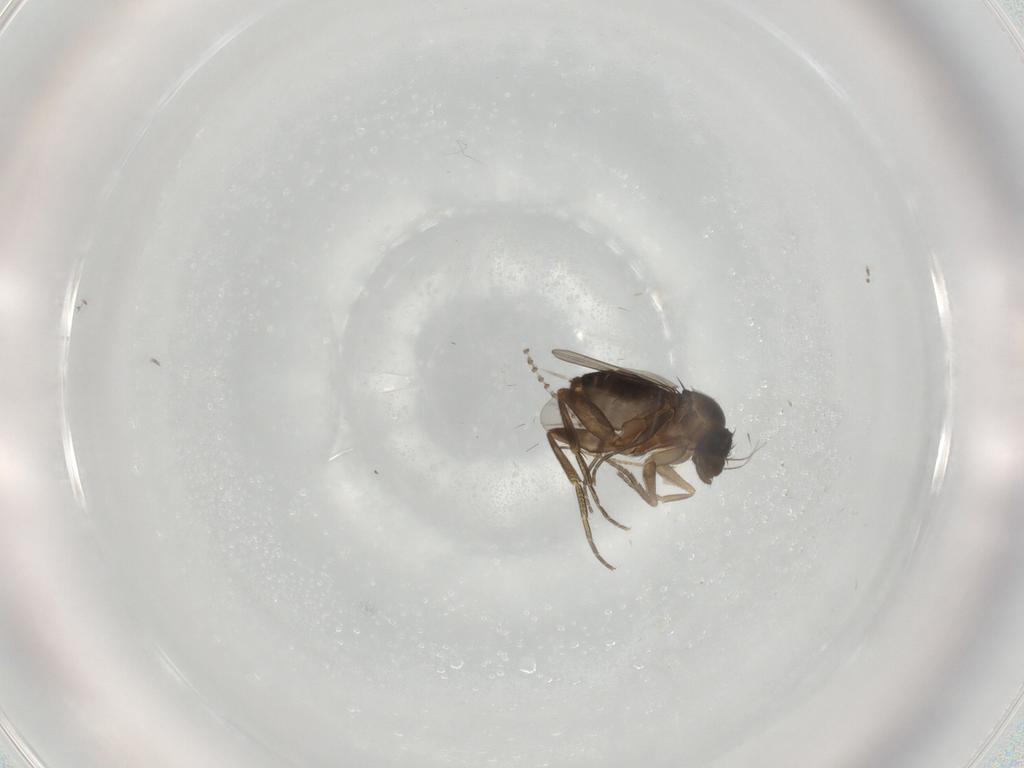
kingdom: Animalia
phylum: Arthropoda
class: Insecta
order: Diptera
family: Phoridae
